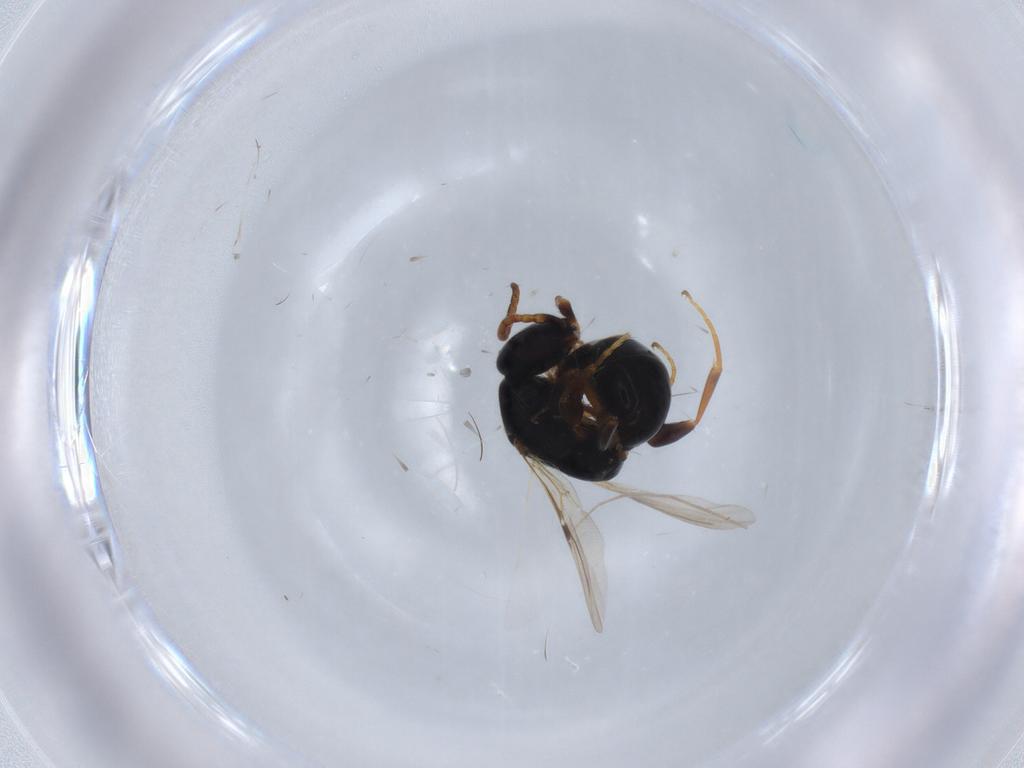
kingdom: Animalia
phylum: Arthropoda
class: Insecta
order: Hymenoptera
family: Bethylidae
